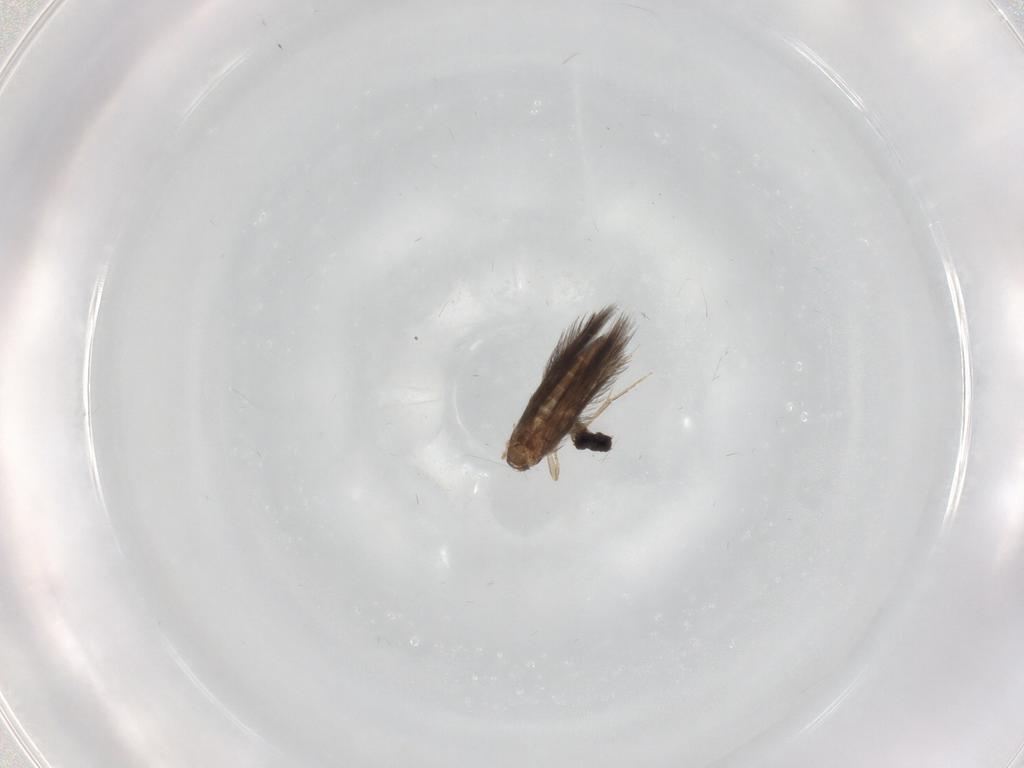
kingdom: Animalia
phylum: Arthropoda
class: Insecta
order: Trichoptera
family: Hydroptilidae
